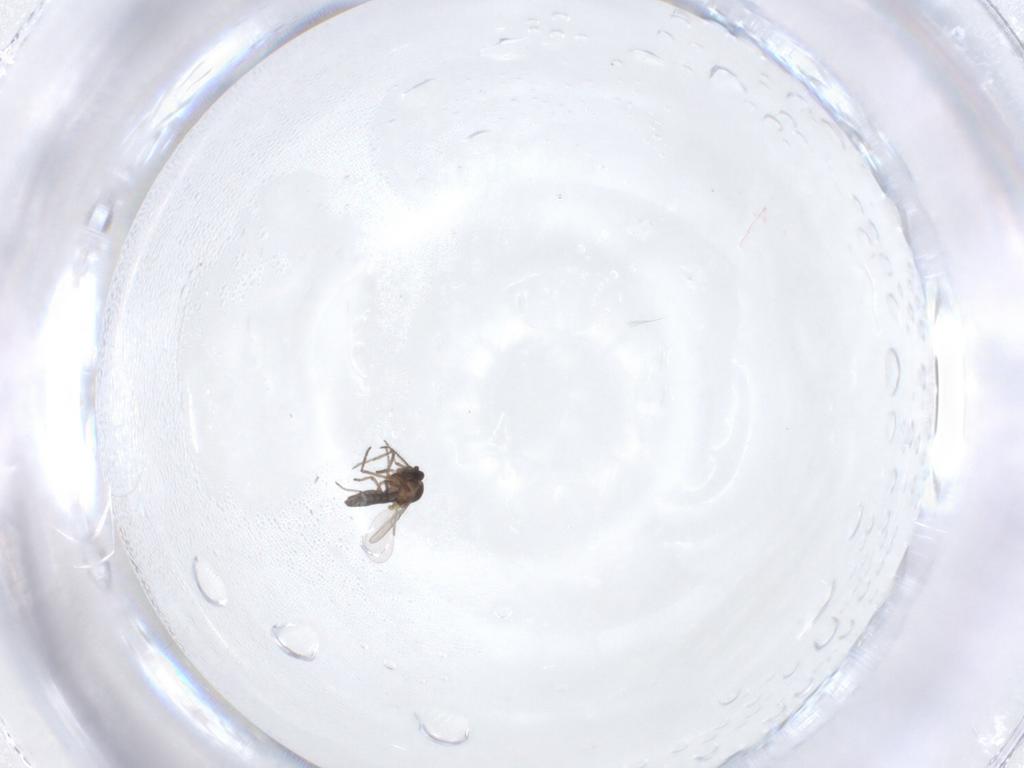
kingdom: Animalia
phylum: Arthropoda
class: Insecta
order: Diptera
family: Ceratopogonidae
